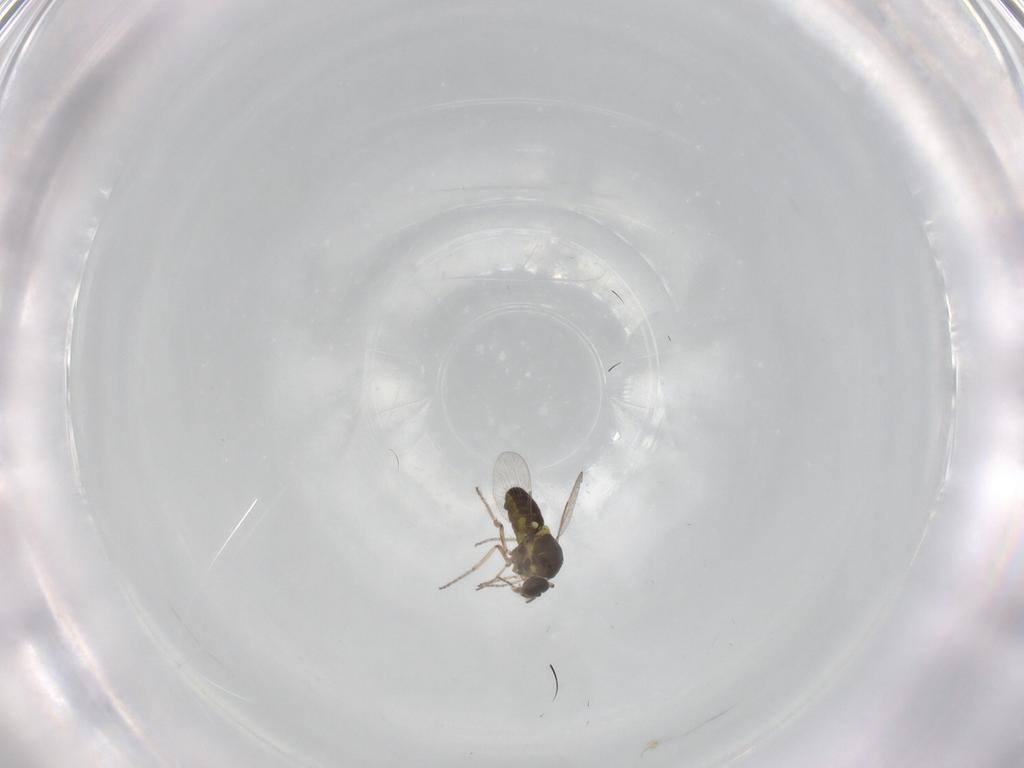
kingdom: Animalia
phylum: Arthropoda
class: Insecta
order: Diptera
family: Ceratopogonidae
